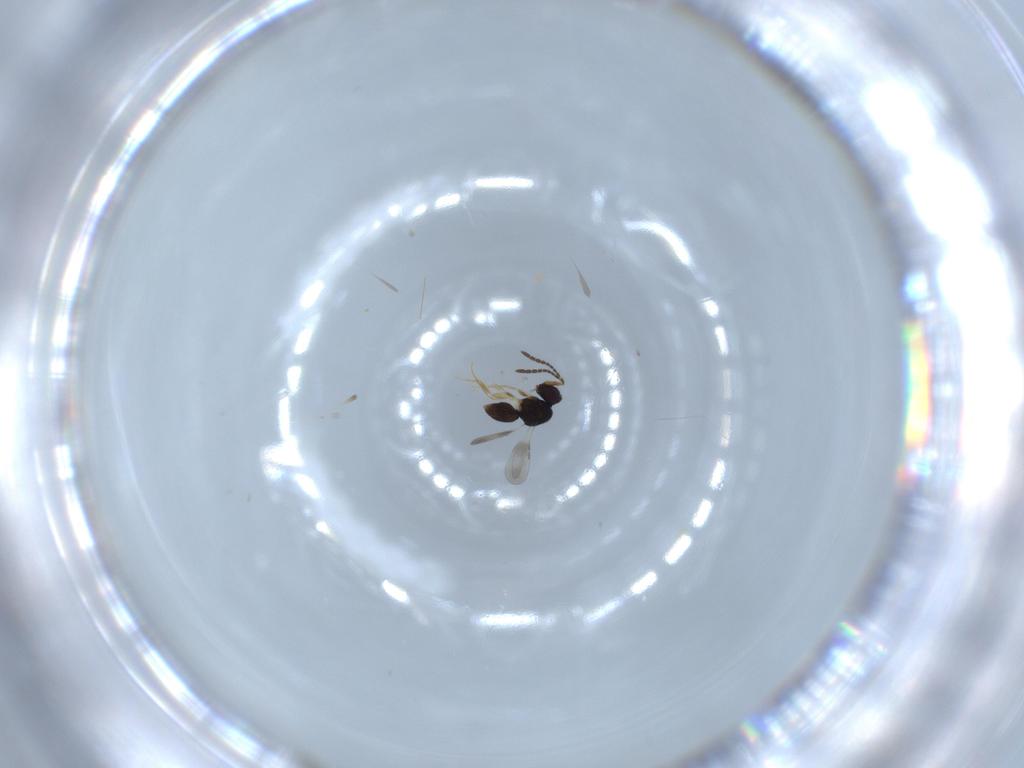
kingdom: Animalia
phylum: Arthropoda
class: Insecta
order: Hymenoptera
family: Ceraphronidae
